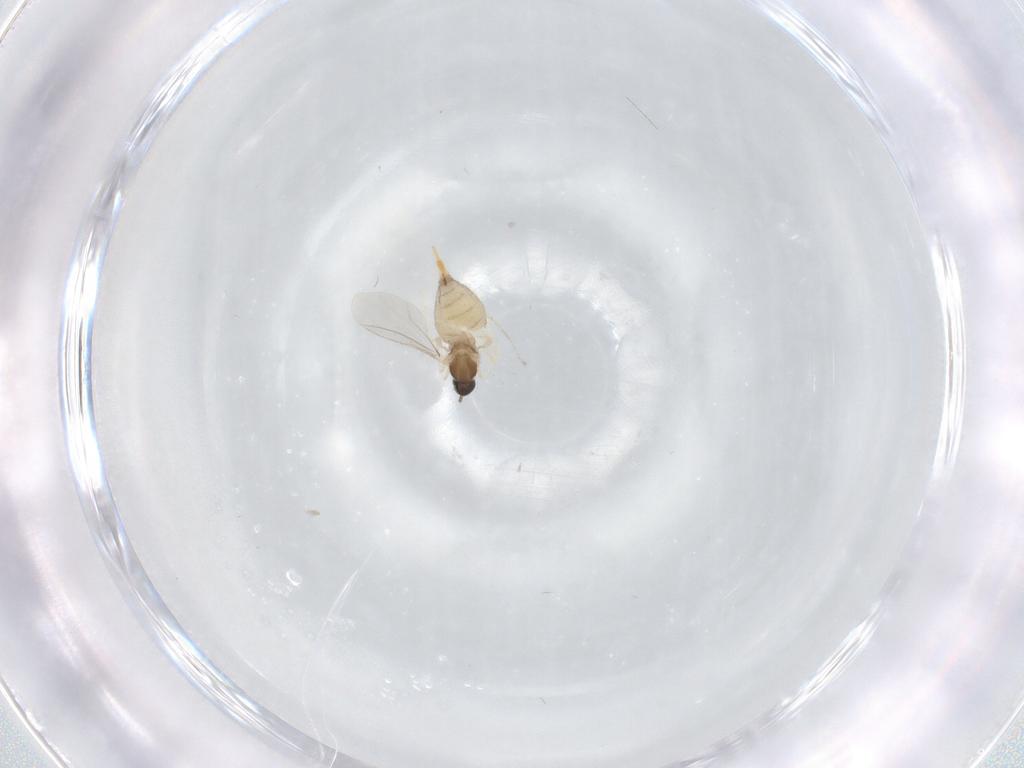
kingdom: Animalia
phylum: Arthropoda
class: Insecta
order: Diptera
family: Cecidomyiidae
